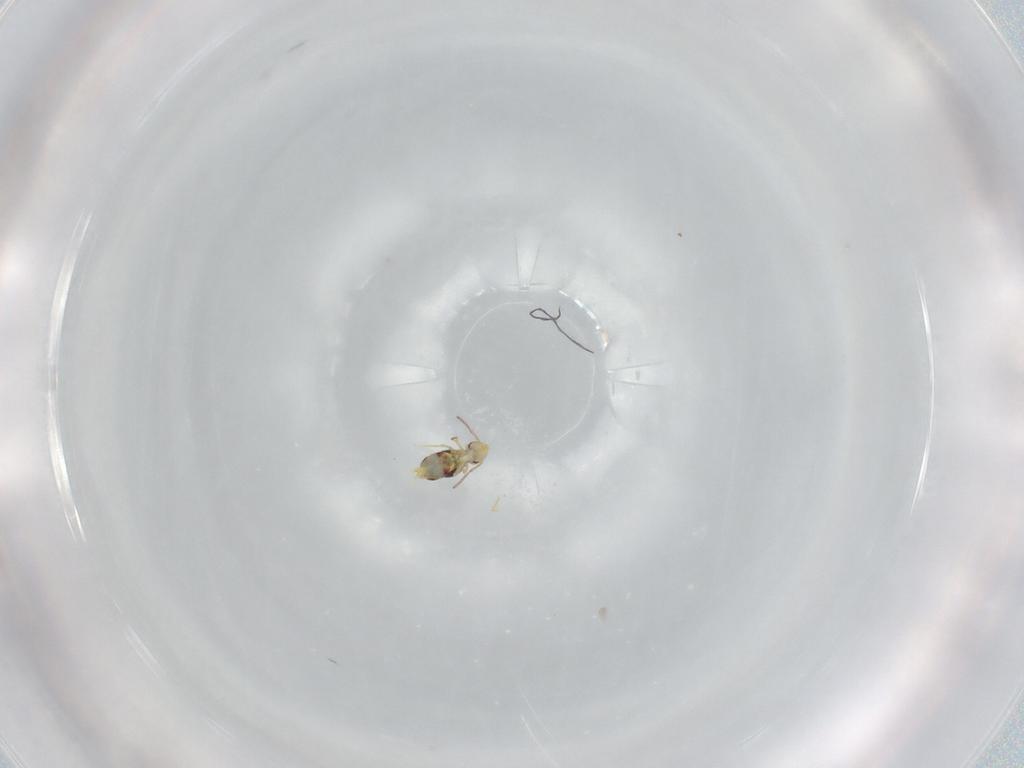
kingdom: Animalia
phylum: Arthropoda
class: Collembola
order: Symphypleona
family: Bourletiellidae
